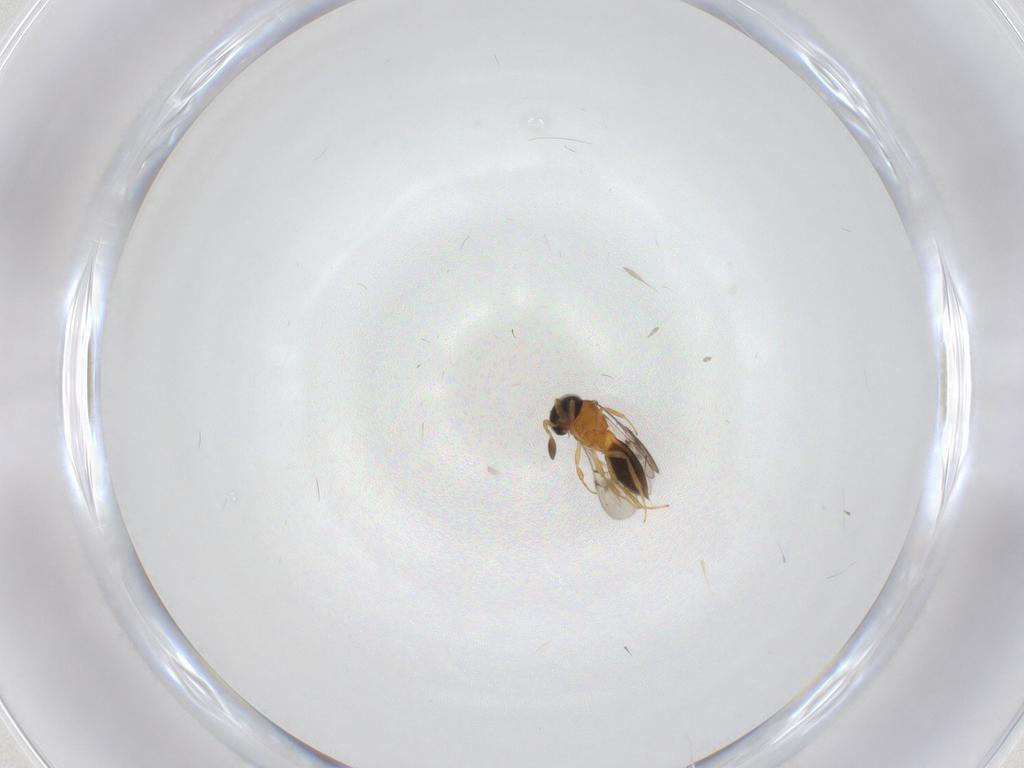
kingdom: Animalia
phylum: Arthropoda
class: Insecta
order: Hymenoptera
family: Scelionidae
